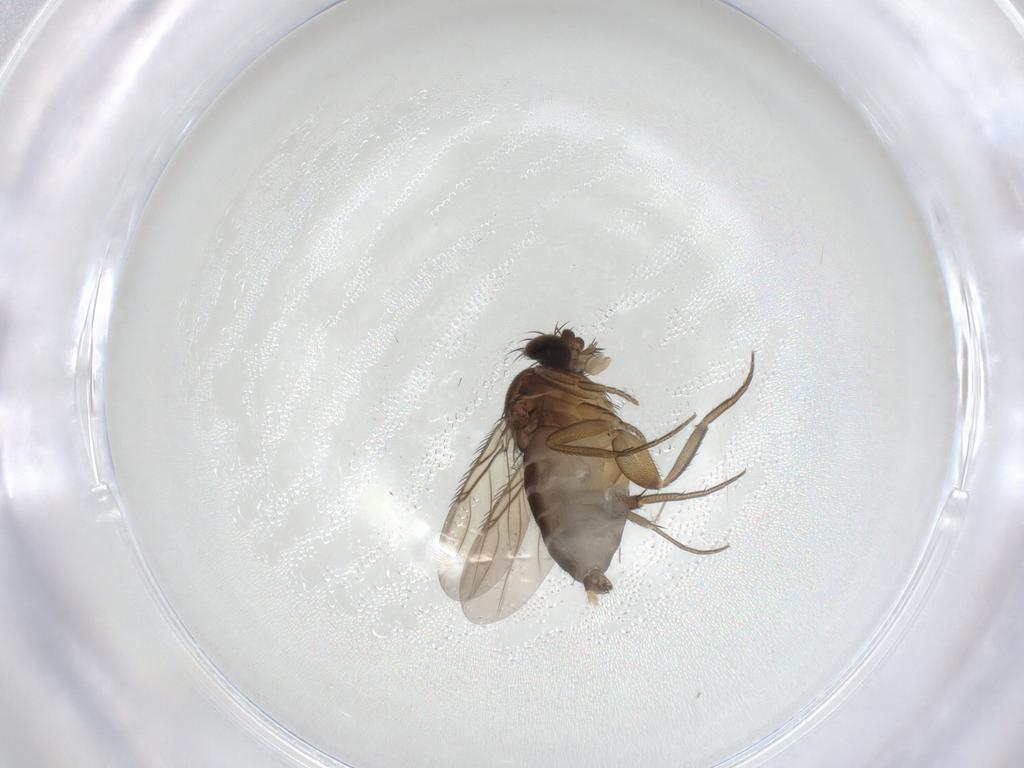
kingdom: Animalia
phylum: Arthropoda
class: Insecta
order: Diptera
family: Phoridae
